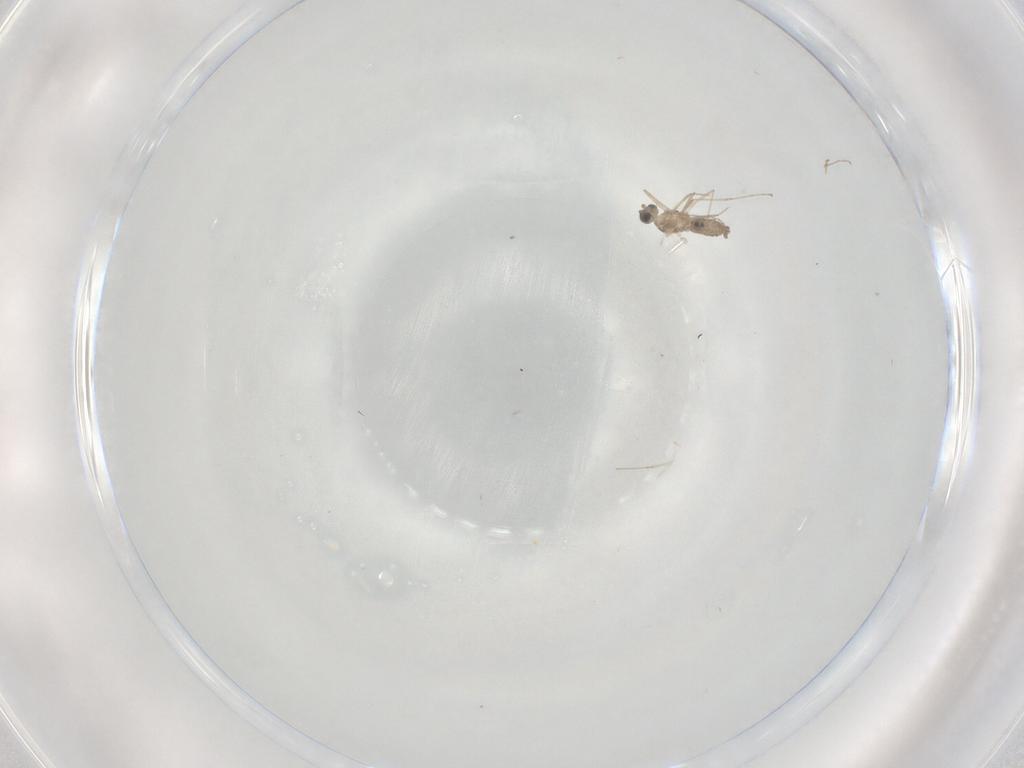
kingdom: Animalia
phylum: Arthropoda
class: Insecta
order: Diptera
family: Cecidomyiidae
